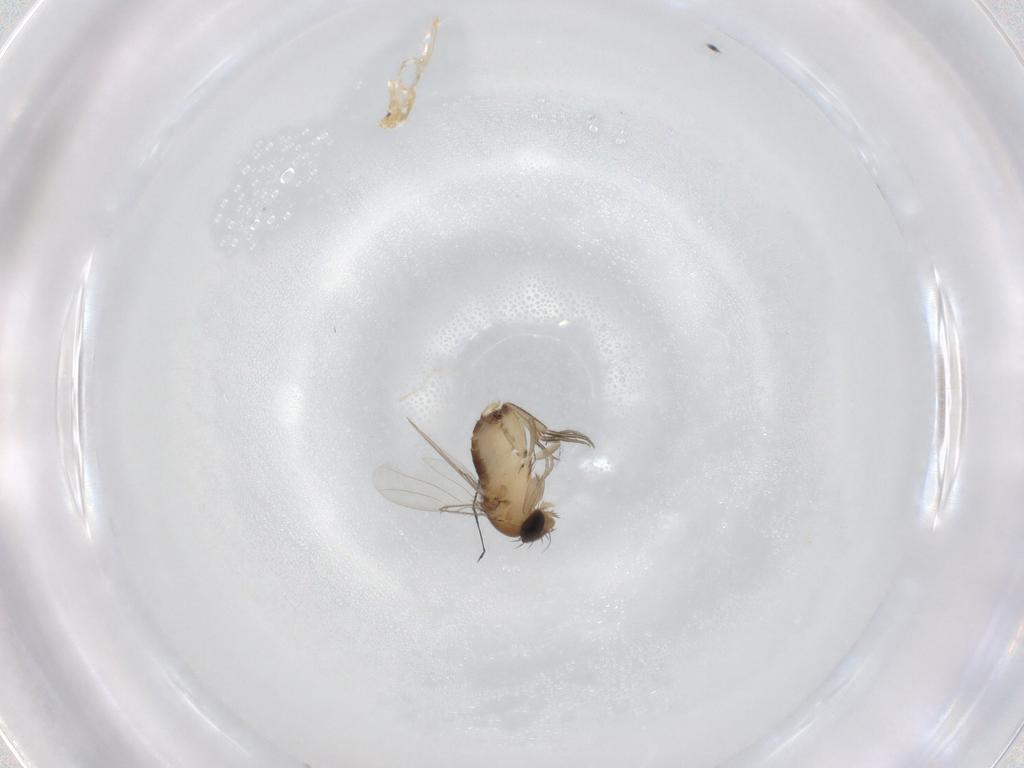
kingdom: Animalia
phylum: Arthropoda
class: Insecta
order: Diptera
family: Phoridae
